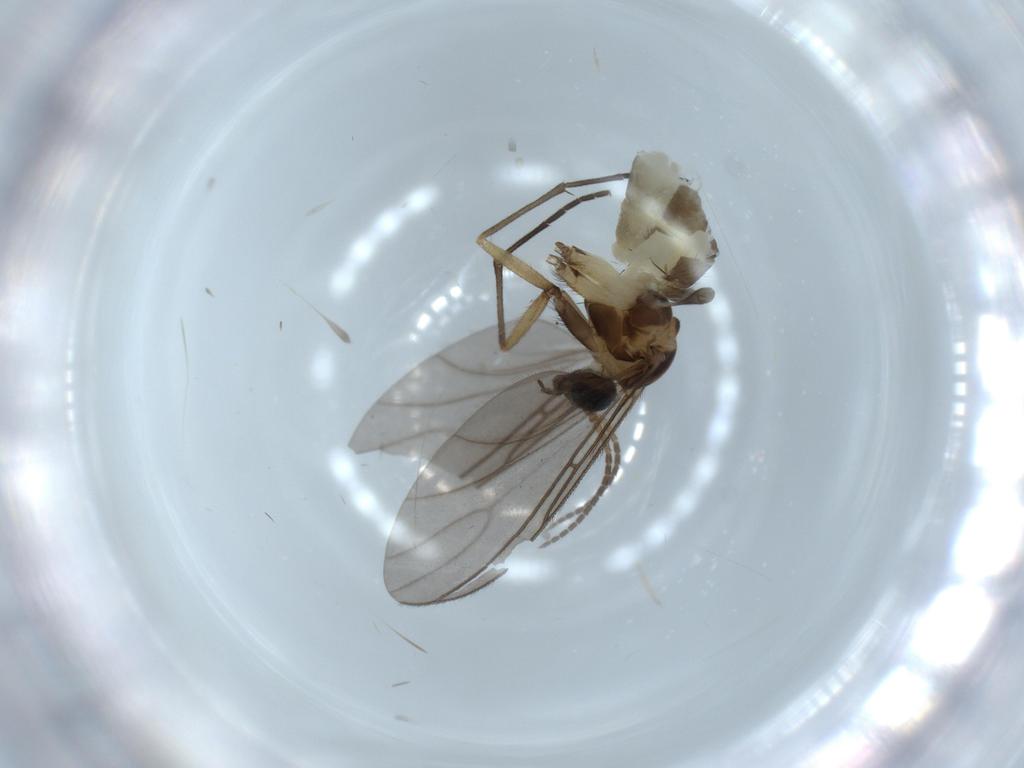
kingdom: Animalia
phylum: Arthropoda
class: Insecta
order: Diptera
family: Sciaridae
